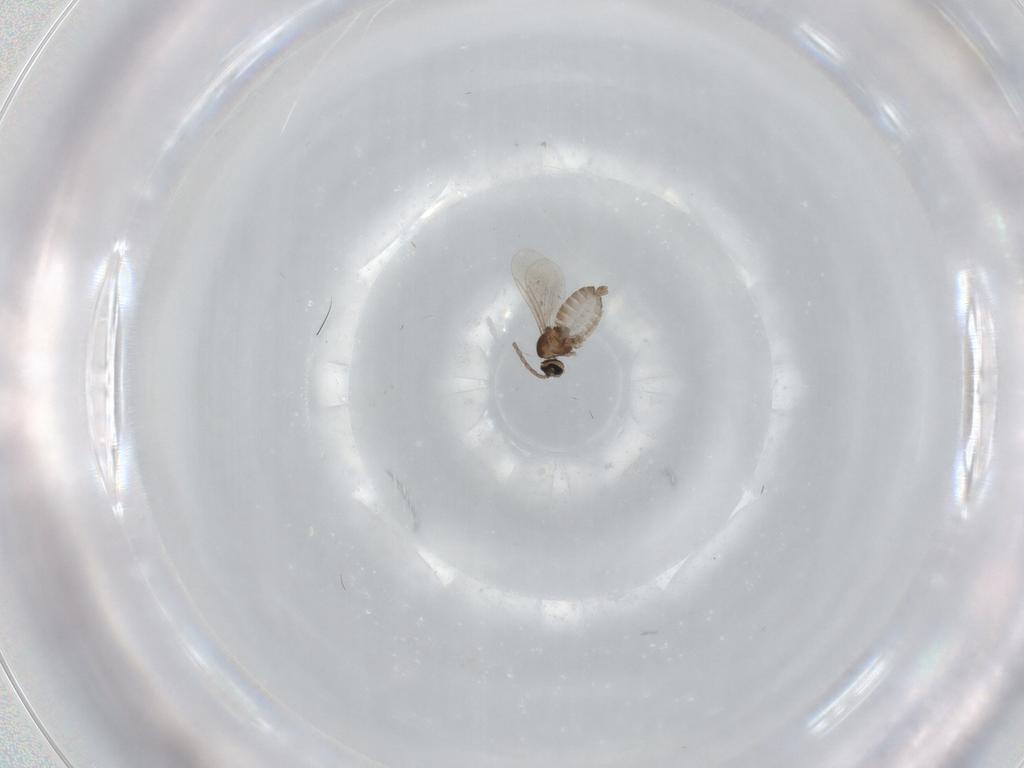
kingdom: Animalia
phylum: Arthropoda
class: Insecta
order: Diptera
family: Cecidomyiidae
